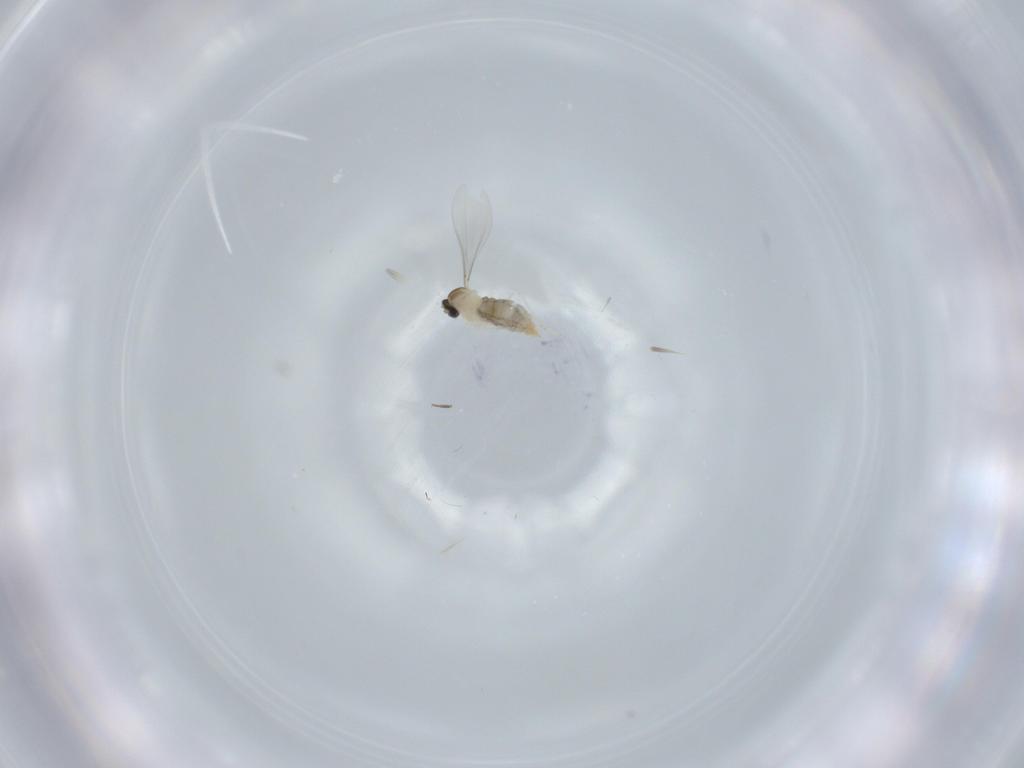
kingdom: Animalia
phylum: Arthropoda
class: Insecta
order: Diptera
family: Phoridae
